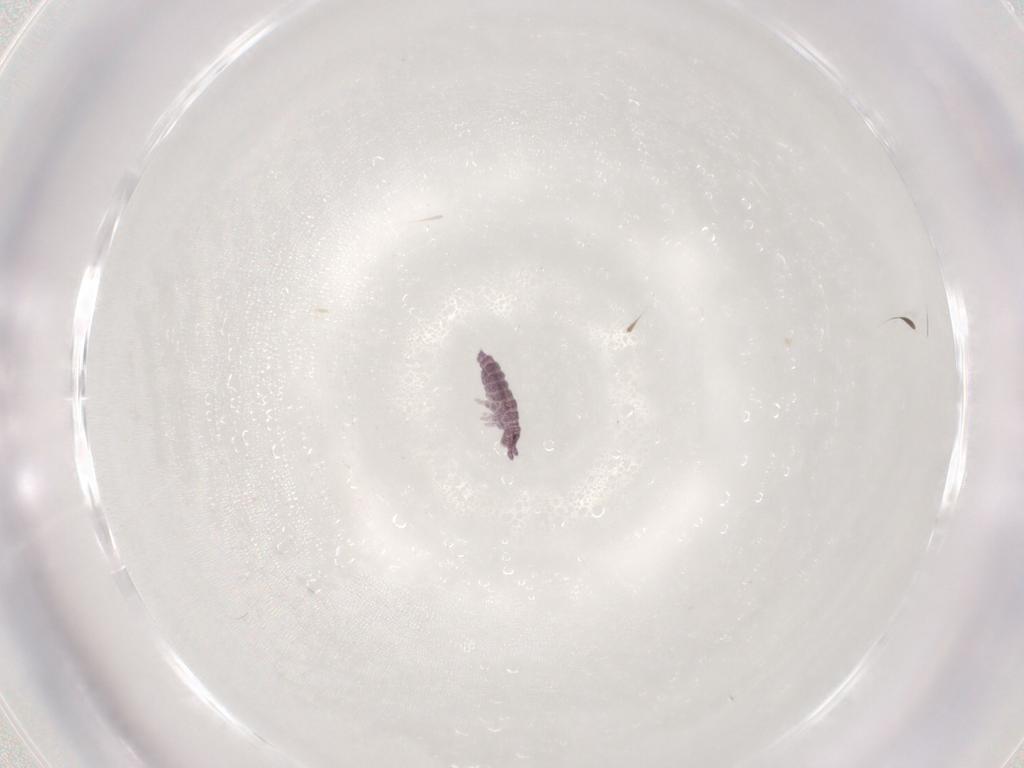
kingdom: Animalia
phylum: Arthropoda
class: Collembola
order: Poduromorpha
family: Hypogastruridae
